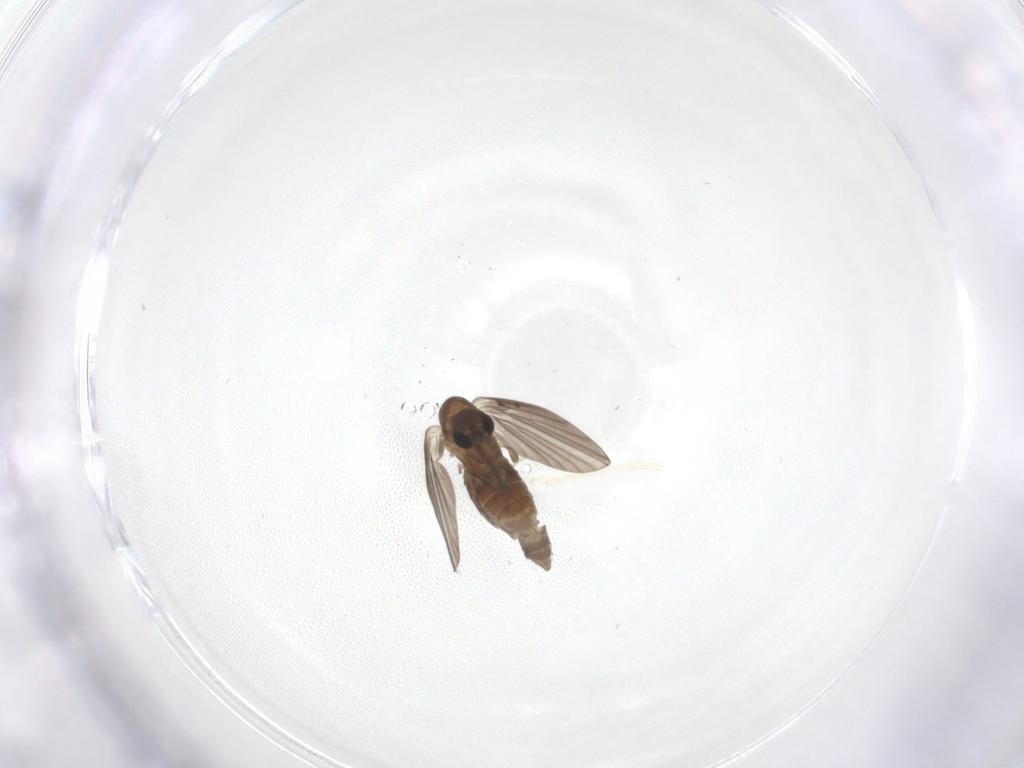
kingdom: Animalia
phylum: Arthropoda
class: Insecta
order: Diptera
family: Psychodidae
